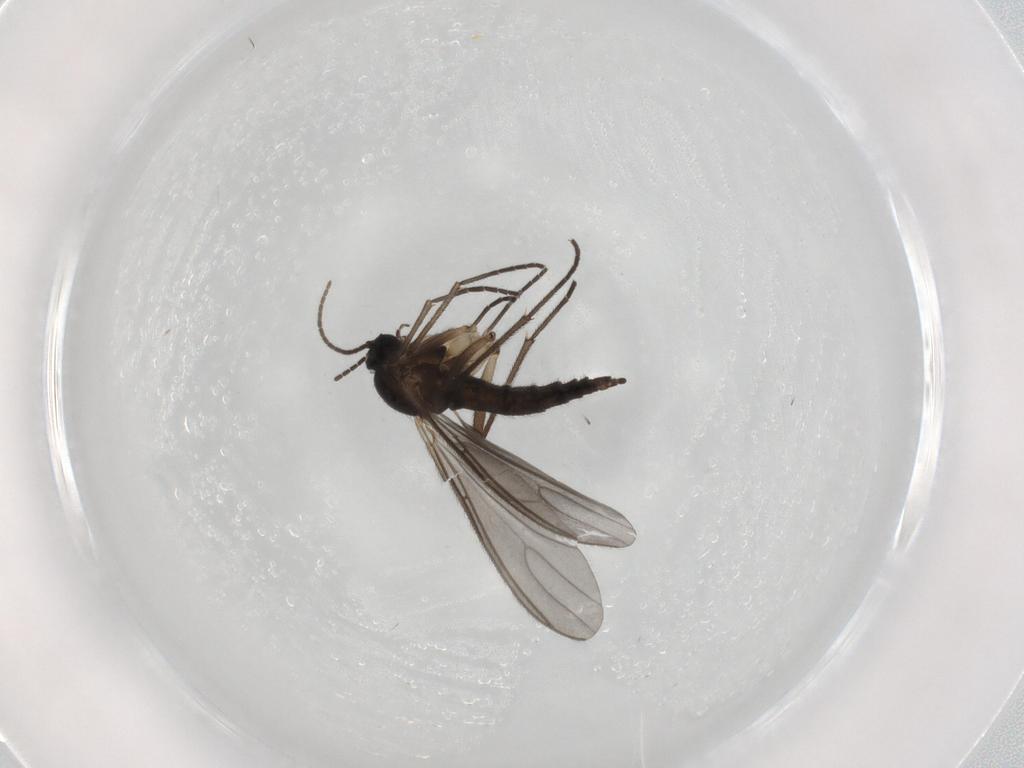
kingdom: Animalia
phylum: Arthropoda
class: Insecta
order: Diptera
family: Sciaridae
